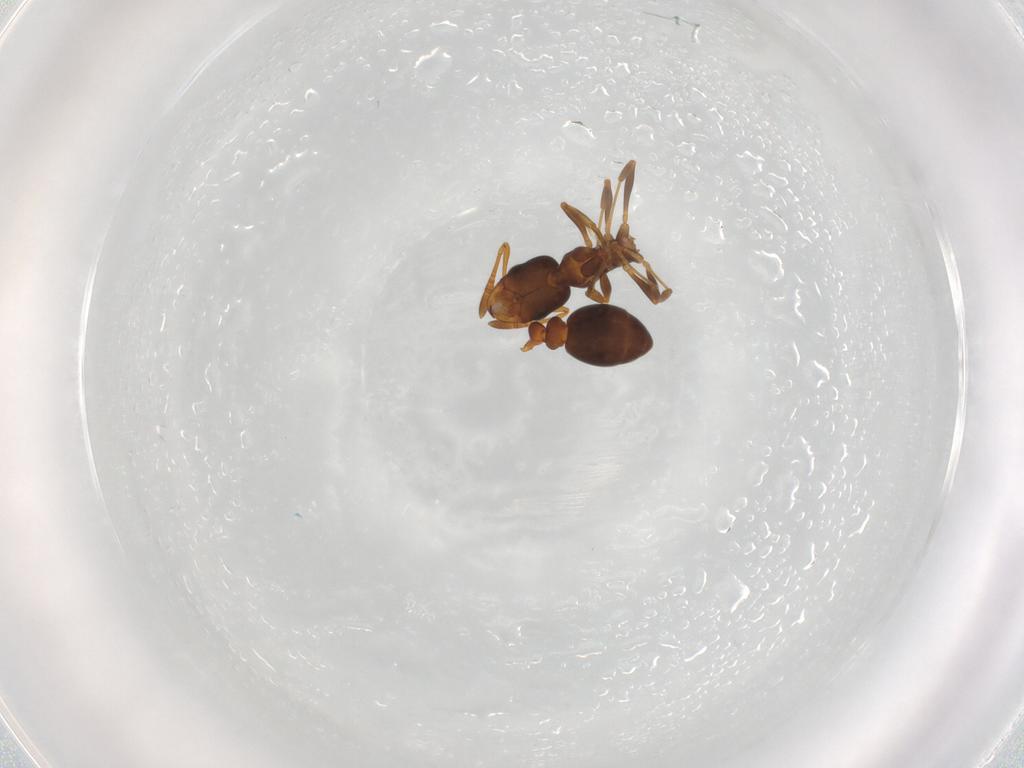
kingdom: Animalia
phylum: Arthropoda
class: Insecta
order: Hymenoptera
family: Formicidae
